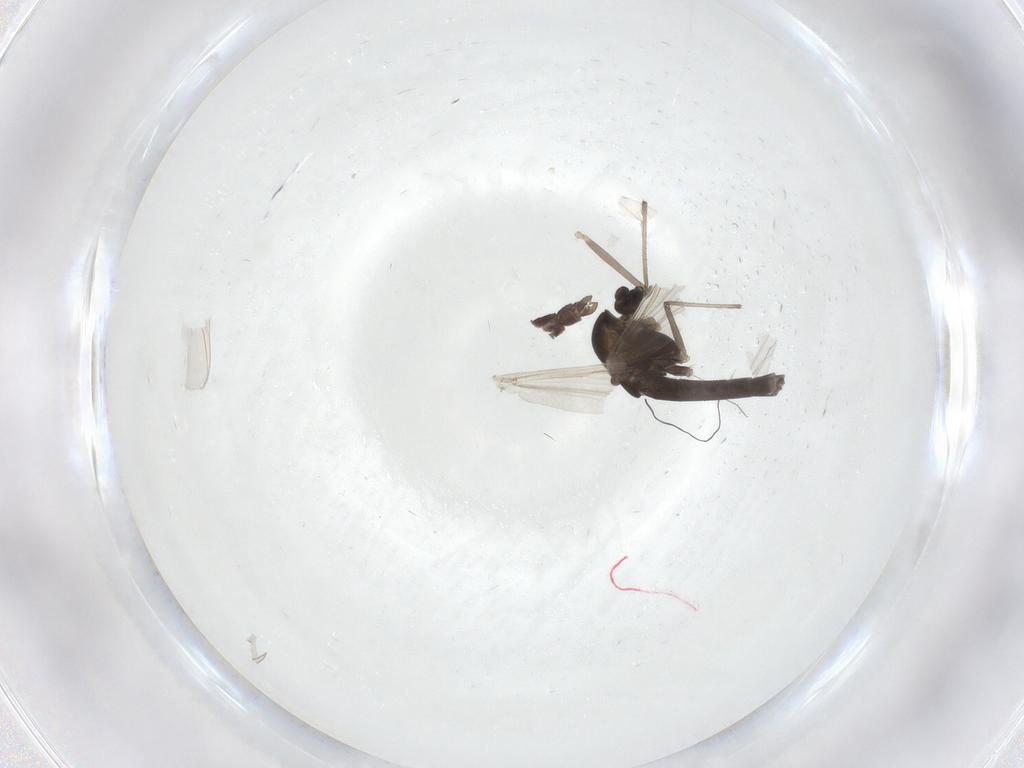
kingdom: Animalia
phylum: Arthropoda
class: Insecta
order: Diptera
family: Chironomidae
